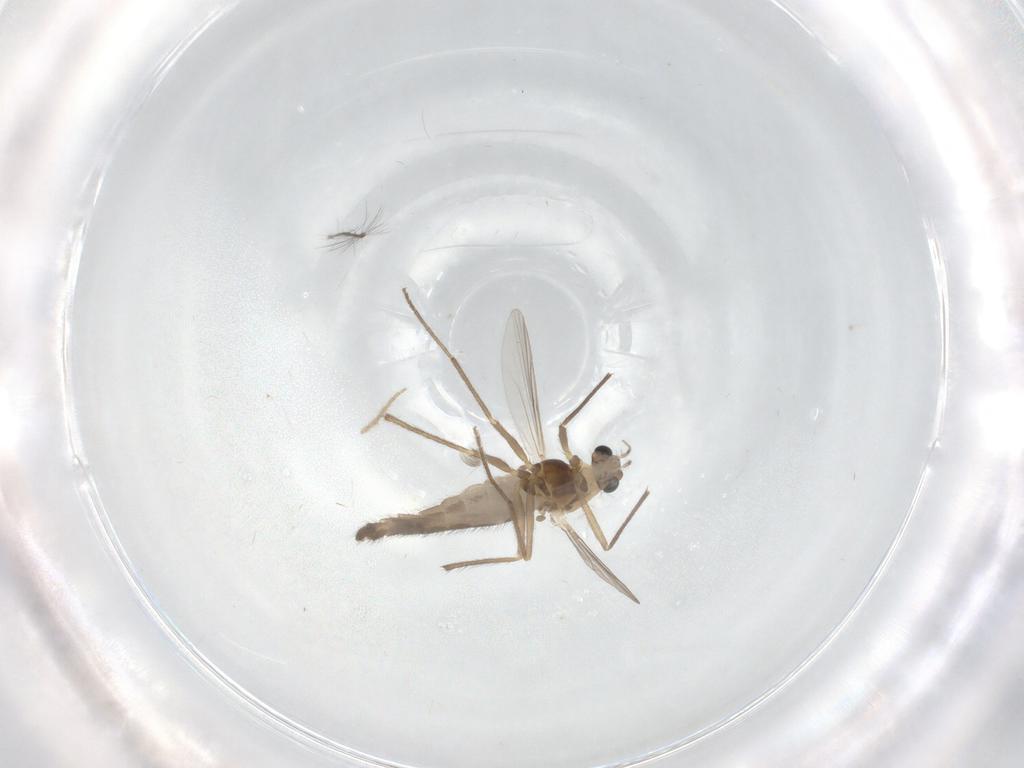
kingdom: Animalia
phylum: Arthropoda
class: Insecta
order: Diptera
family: Chironomidae
